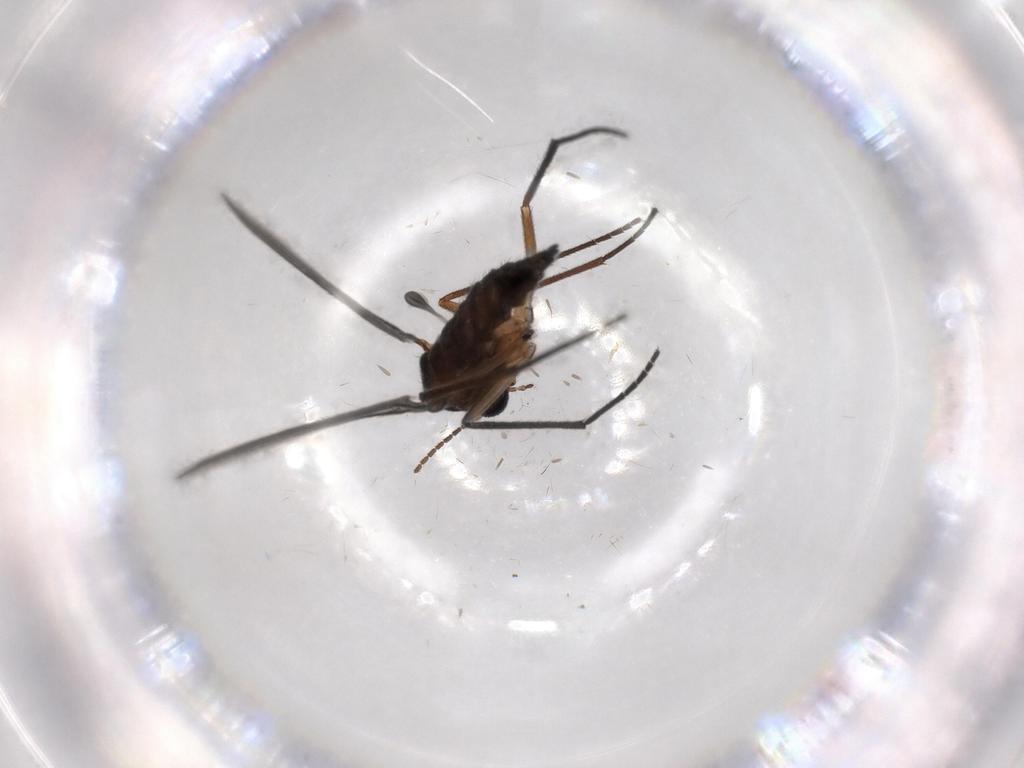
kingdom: Animalia
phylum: Arthropoda
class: Insecta
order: Diptera
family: Sciaridae
